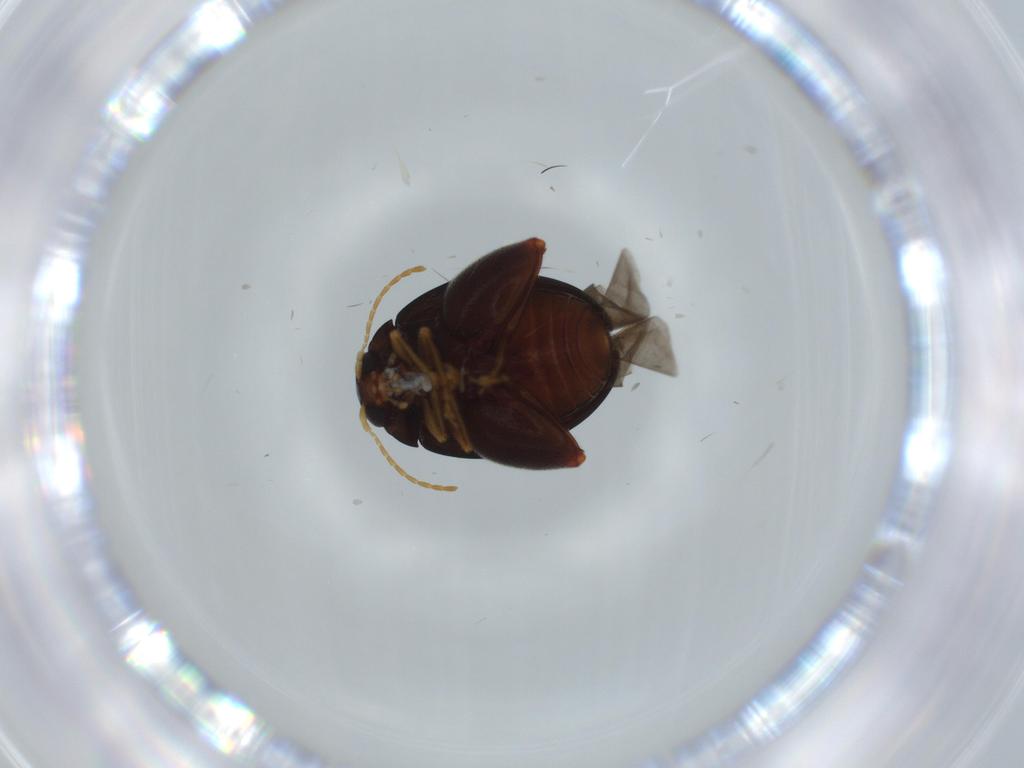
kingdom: Animalia
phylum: Arthropoda
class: Insecta
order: Coleoptera
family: Chrysomelidae
